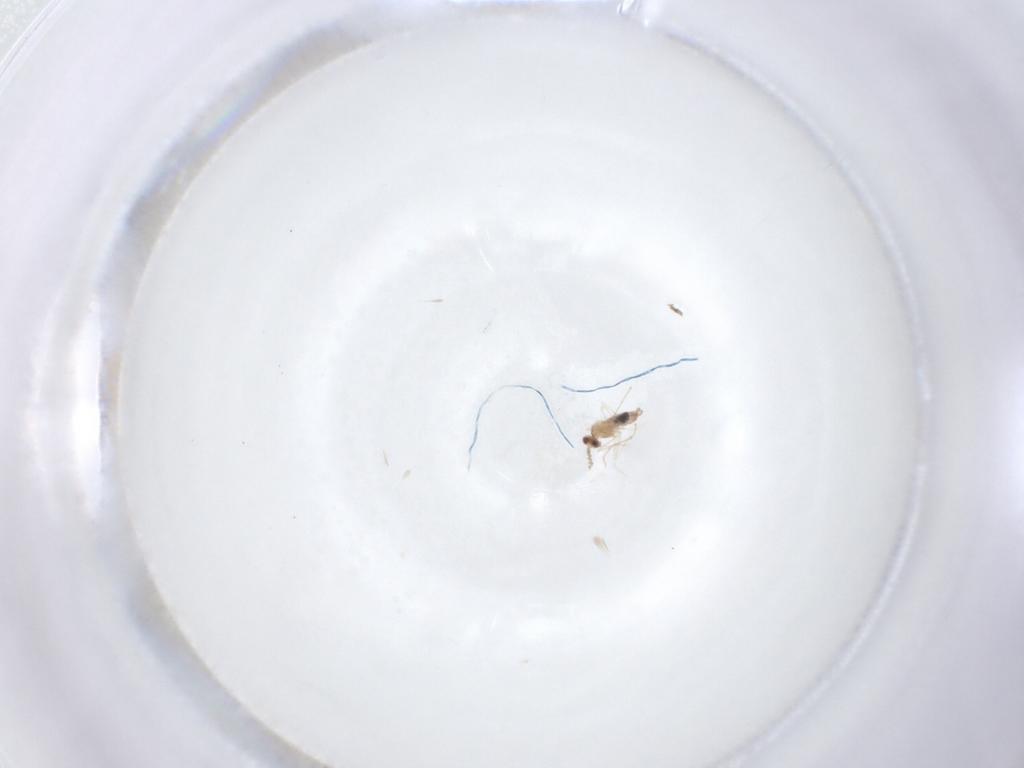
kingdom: Animalia
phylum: Arthropoda
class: Insecta
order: Diptera
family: Cecidomyiidae
